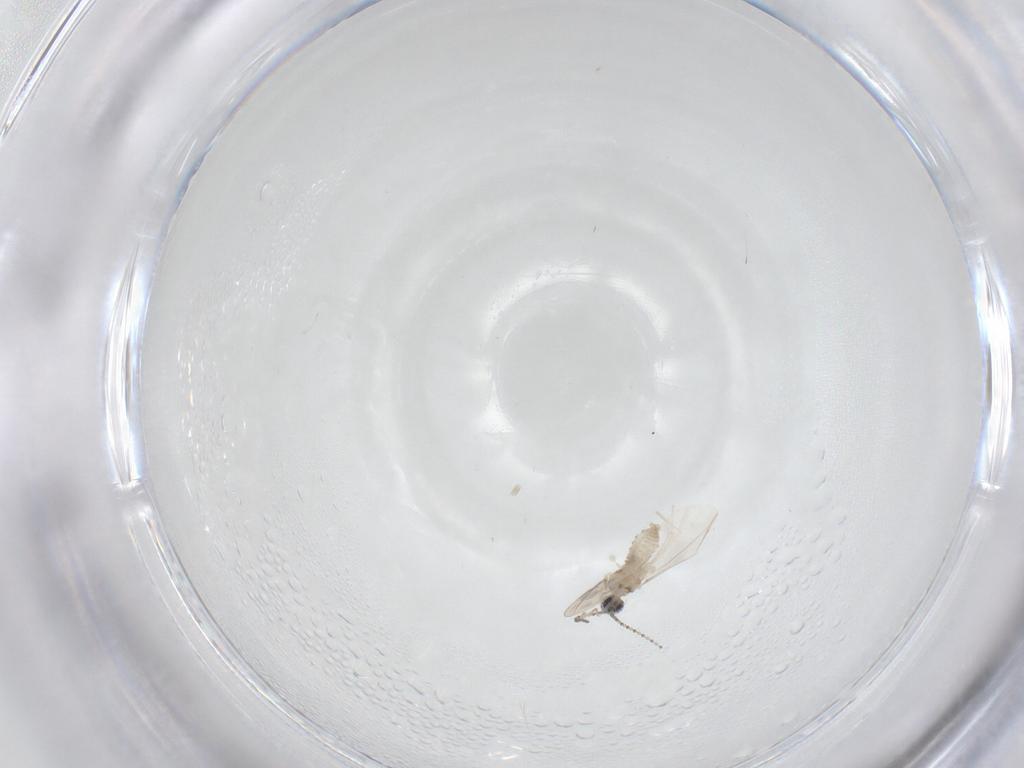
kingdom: Animalia
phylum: Arthropoda
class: Insecta
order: Diptera
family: Cecidomyiidae
